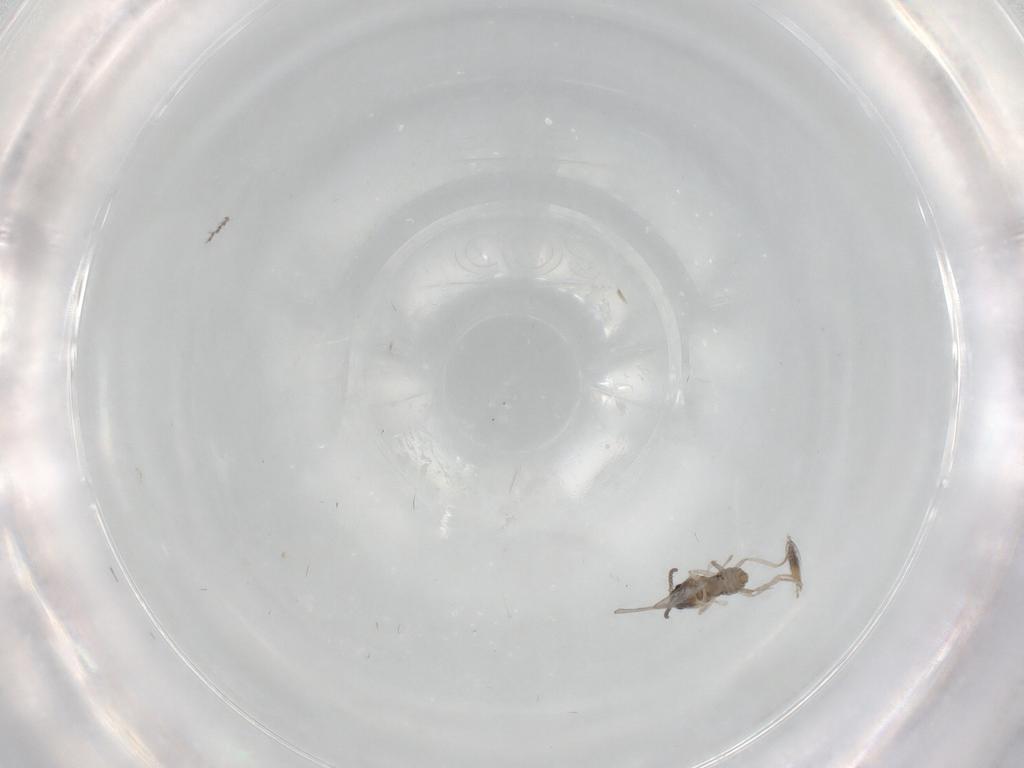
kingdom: Animalia
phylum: Arthropoda
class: Insecta
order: Diptera
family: Cecidomyiidae
